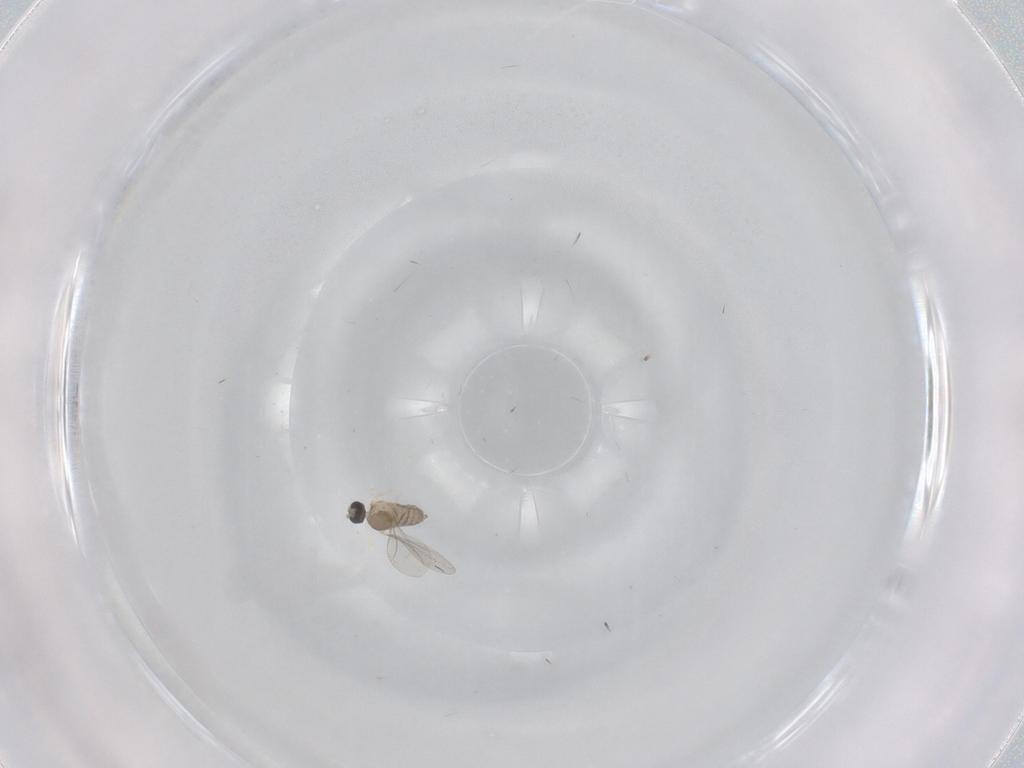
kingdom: Animalia
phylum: Arthropoda
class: Insecta
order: Diptera
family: Cecidomyiidae
